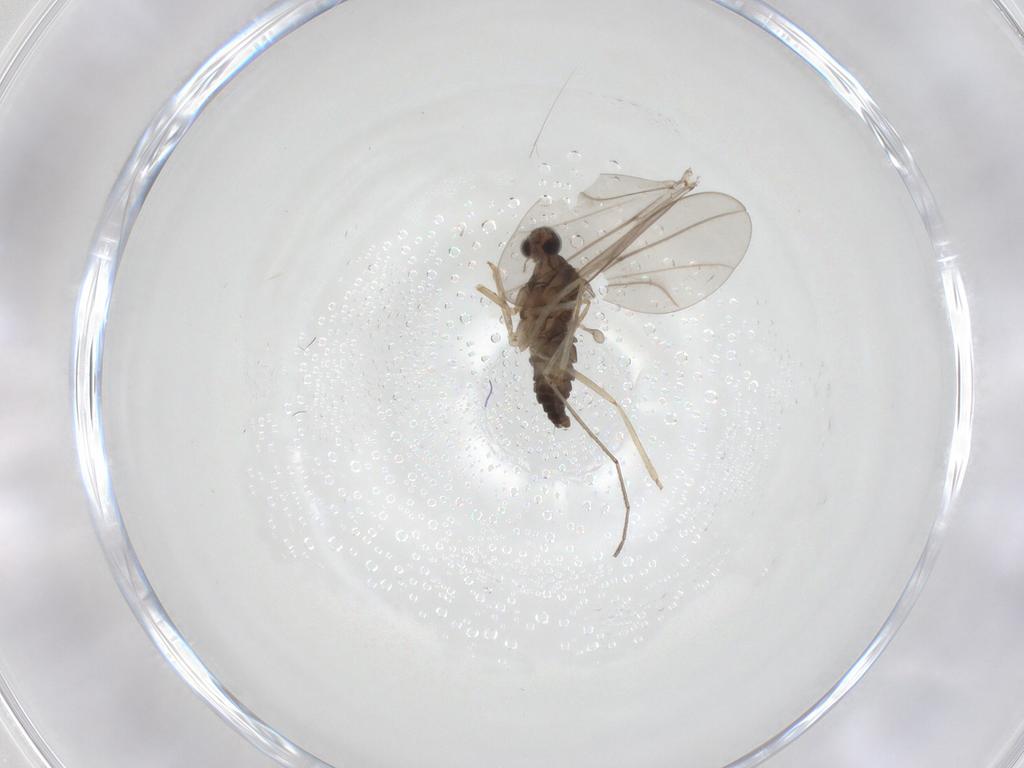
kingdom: Animalia
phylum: Arthropoda
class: Insecta
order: Diptera
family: Cecidomyiidae
